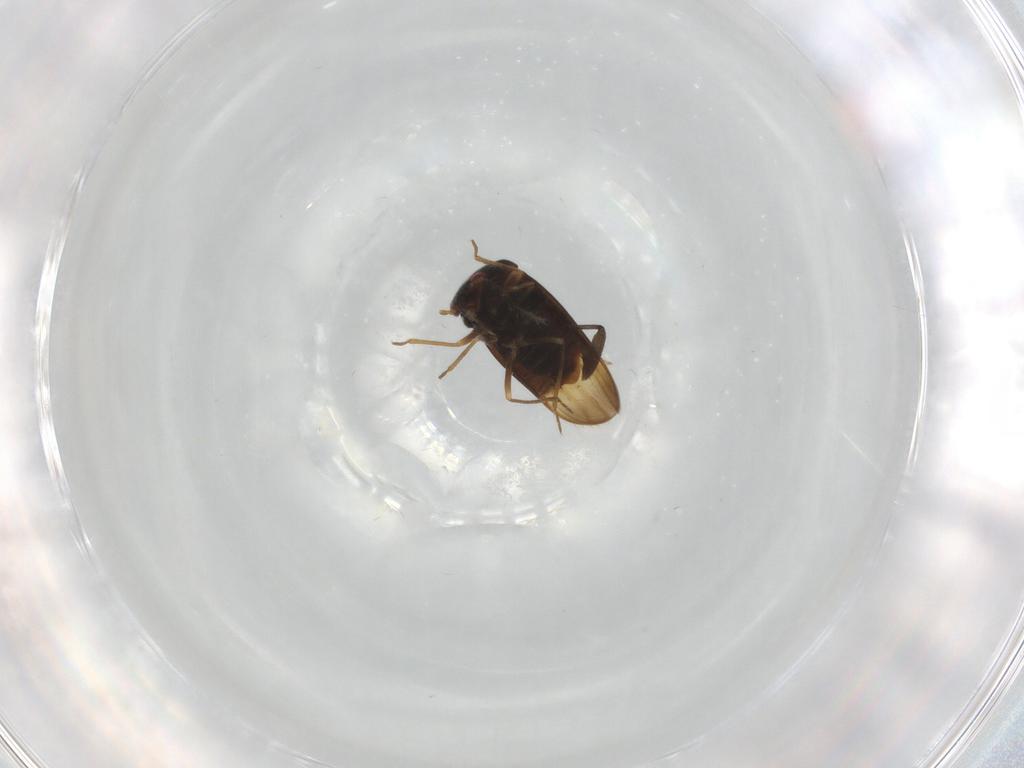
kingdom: Animalia
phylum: Arthropoda
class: Insecta
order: Hemiptera
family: Schizopteridae
